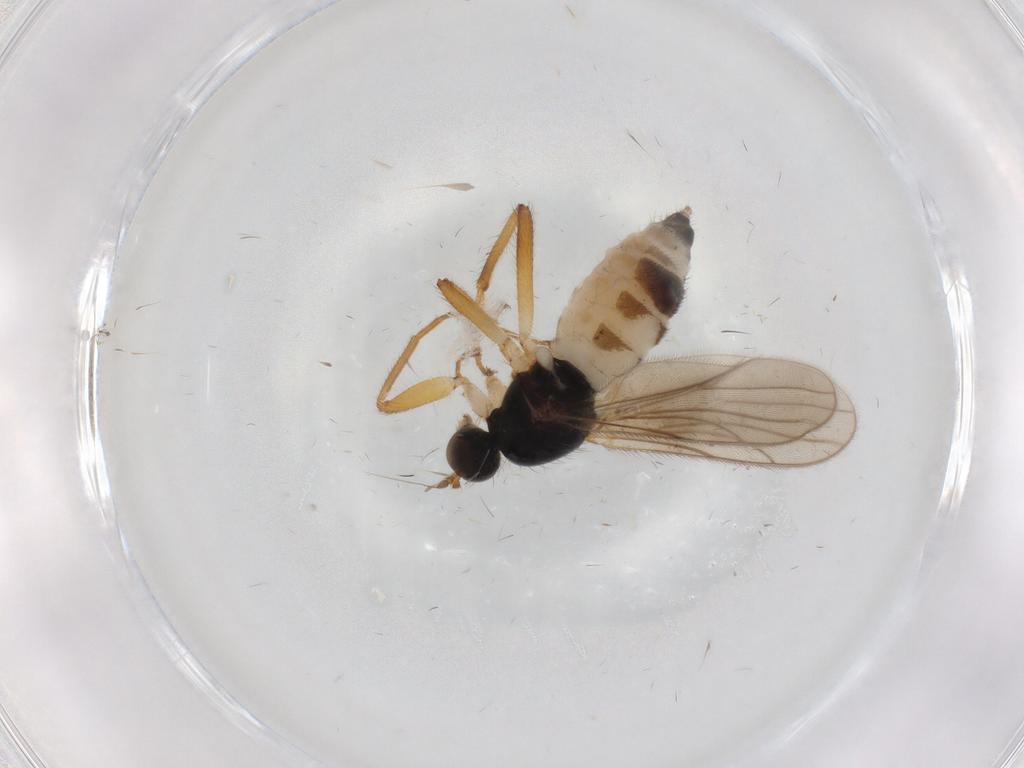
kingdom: Animalia
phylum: Arthropoda
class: Insecta
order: Diptera
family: Hybotidae
